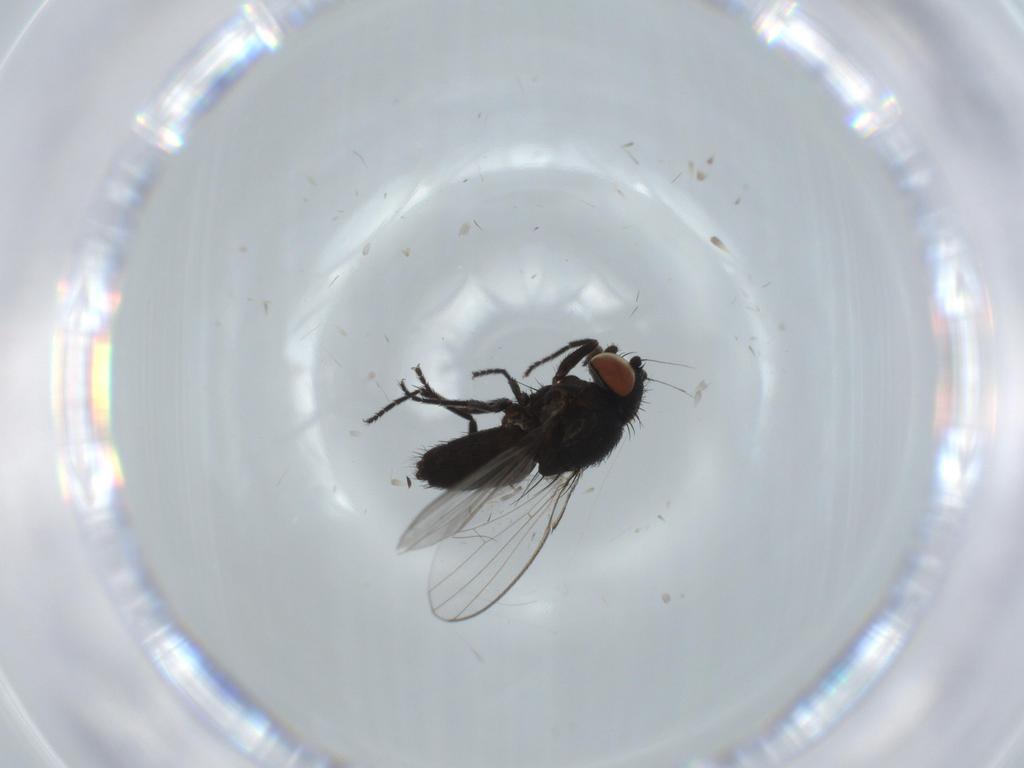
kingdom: Animalia
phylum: Arthropoda
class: Insecta
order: Diptera
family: Milichiidae
